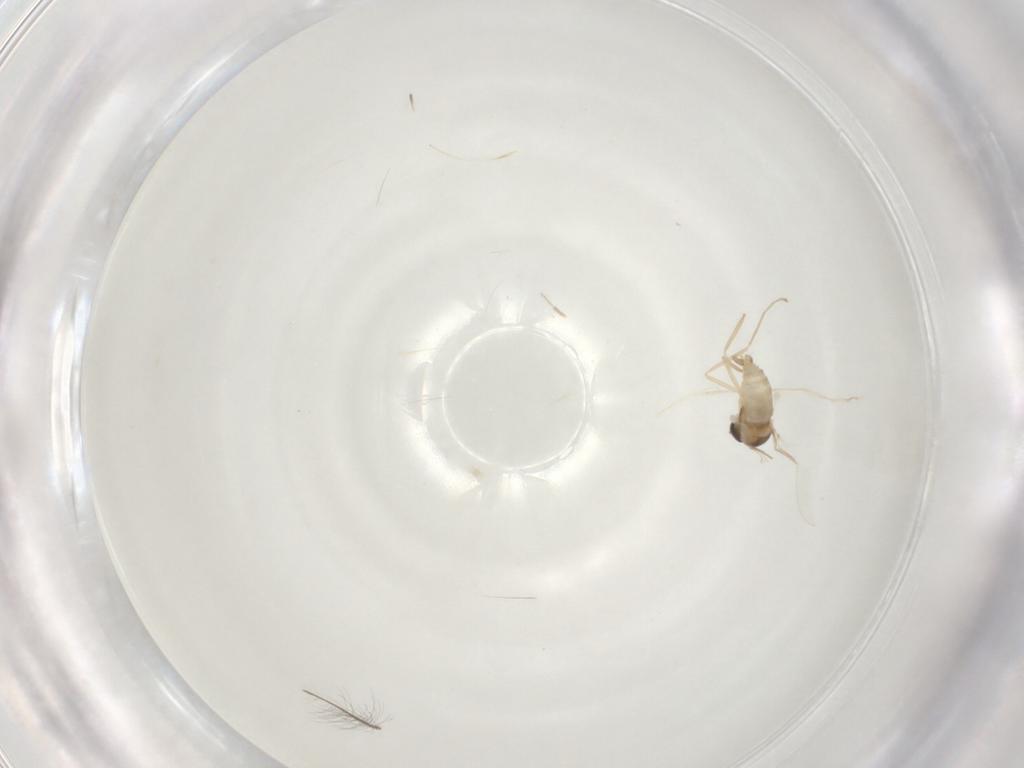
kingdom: Animalia
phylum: Arthropoda
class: Insecta
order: Diptera
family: Cecidomyiidae
